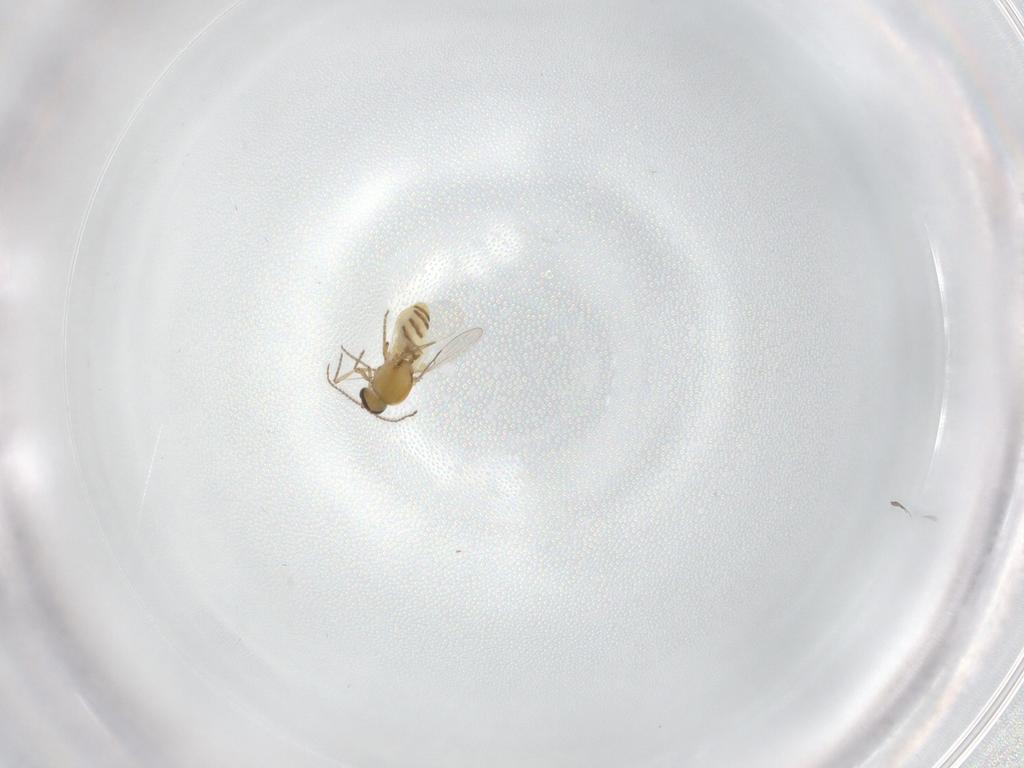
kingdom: Animalia
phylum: Arthropoda
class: Insecta
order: Diptera
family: Ceratopogonidae
